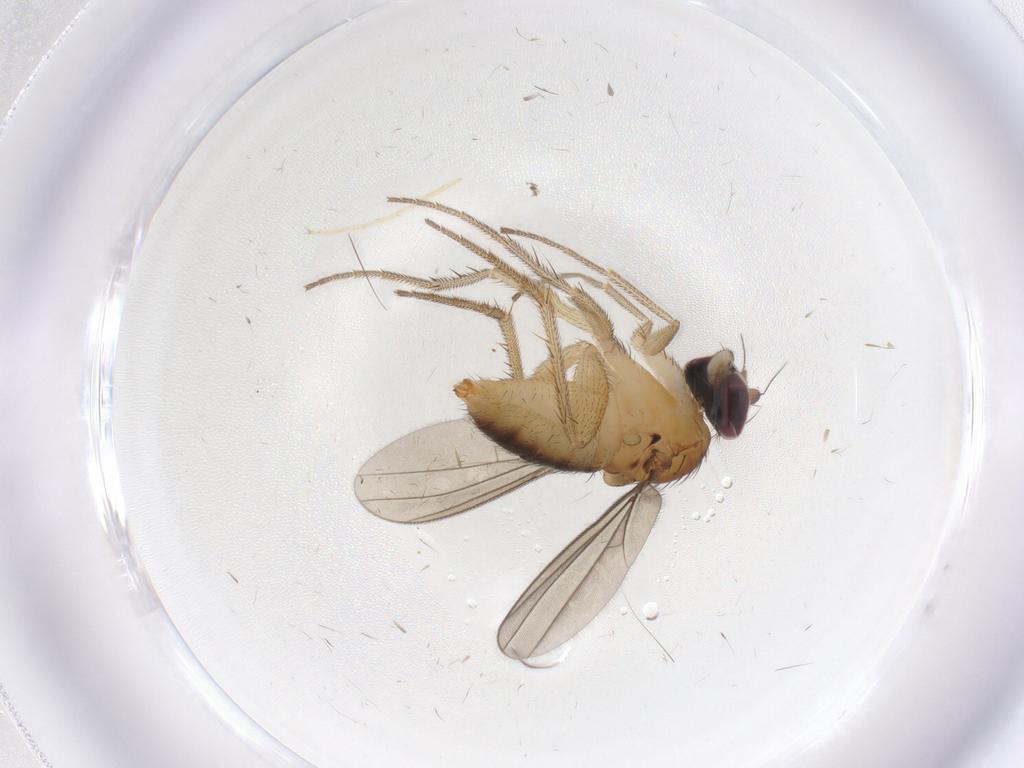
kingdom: Animalia
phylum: Arthropoda
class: Insecta
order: Diptera
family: Dolichopodidae
